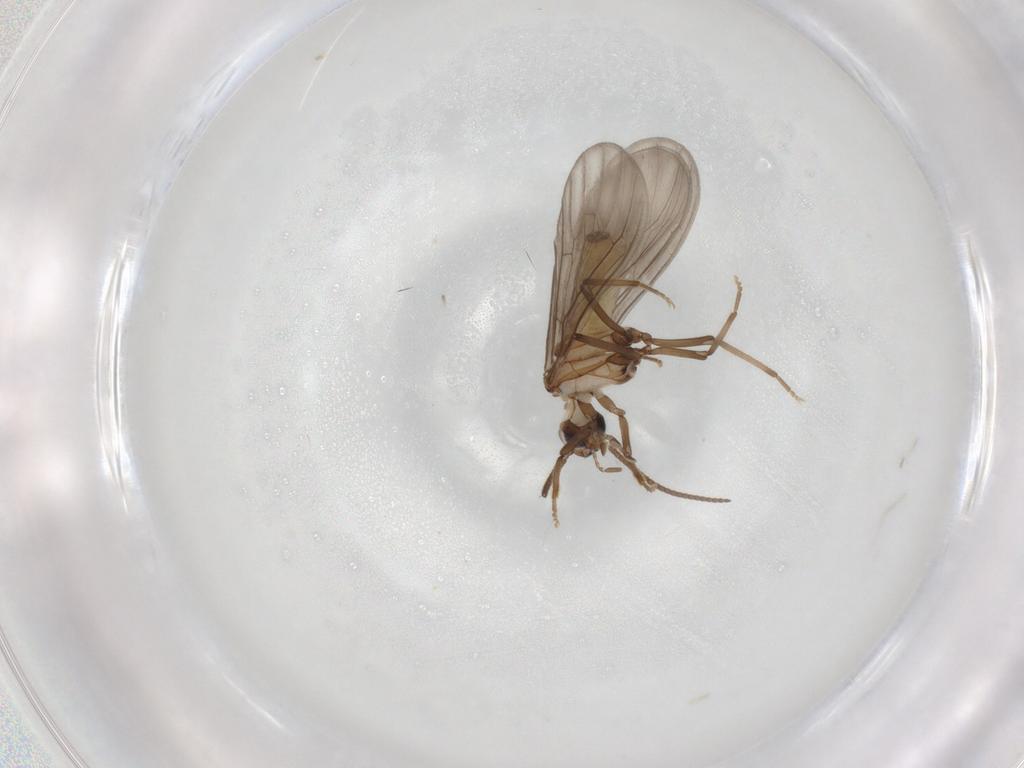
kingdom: Animalia
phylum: Arthropoda
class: Insecta
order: Neuroptera
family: Coniopterygidae
